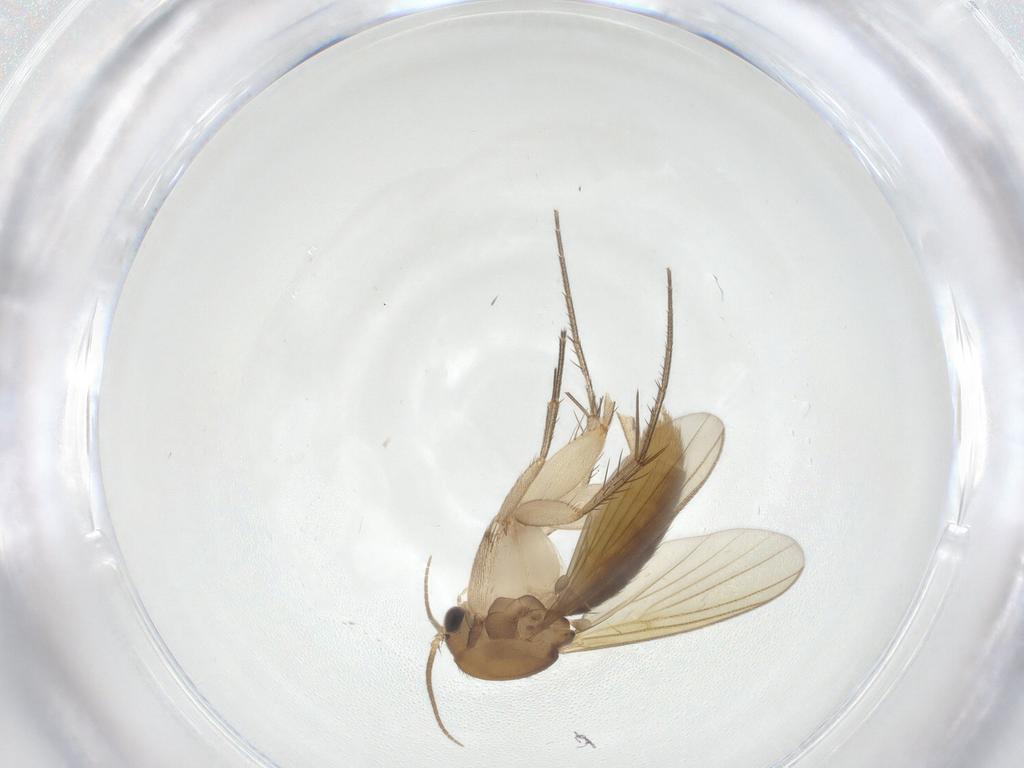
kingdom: Animalia
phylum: Arthropoda
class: Insecta
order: Diptera
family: Mycetophilidae
